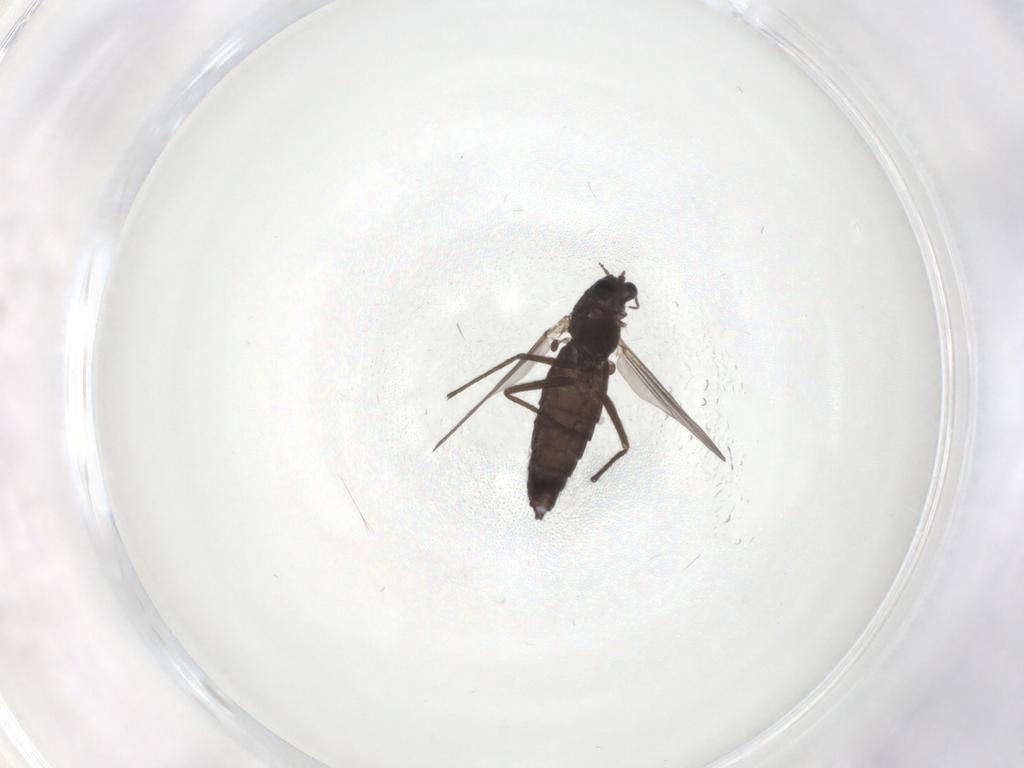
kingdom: Animalia
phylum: Arthropoda
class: Insecta
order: Diptera
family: Chironomidae
